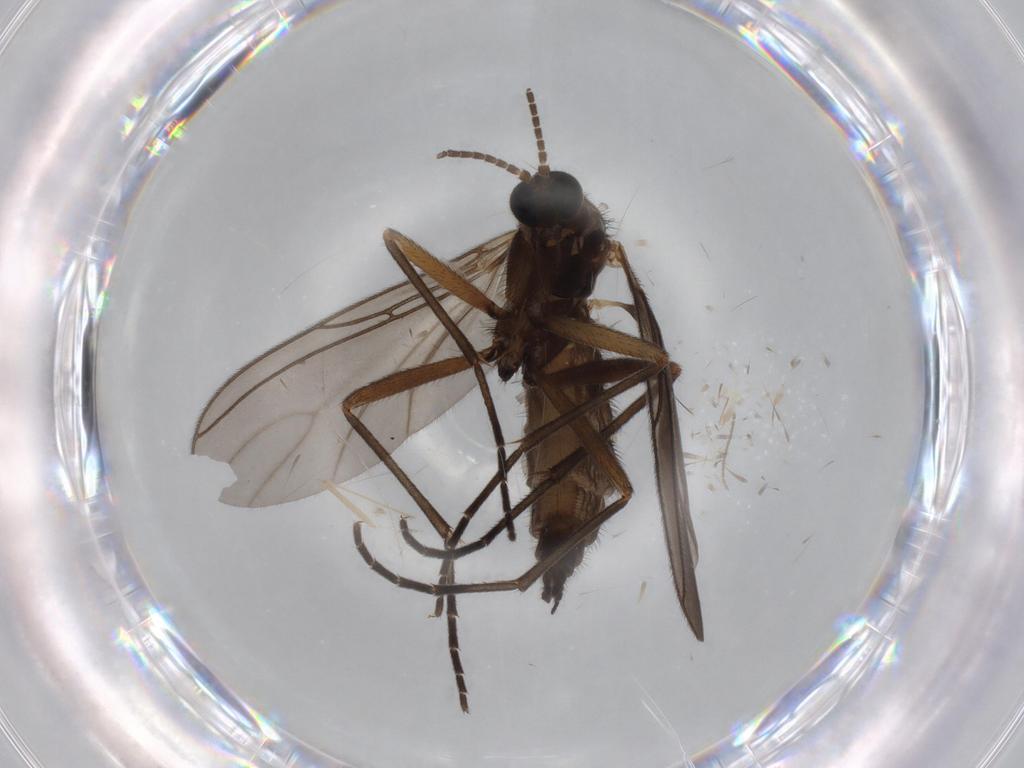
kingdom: Animalia
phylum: Arthropoda
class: Insecta
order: Diptera
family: Sciaridae
